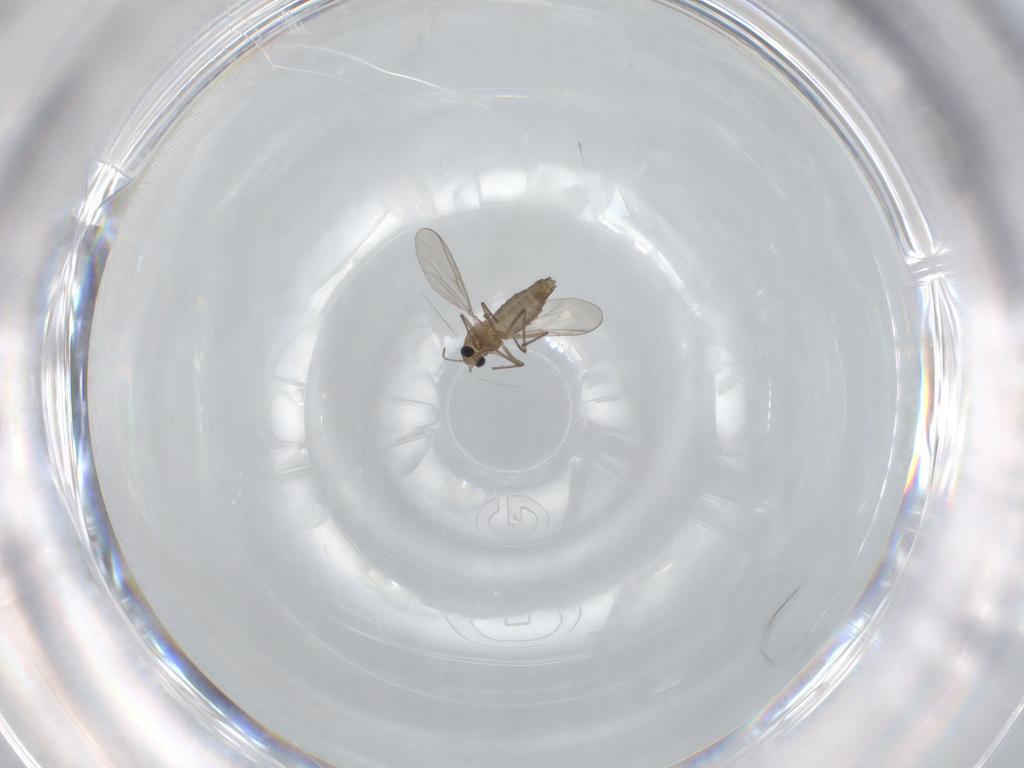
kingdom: Animalia
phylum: Arthropoda
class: Insecta
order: Diptera
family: Chironomidae
